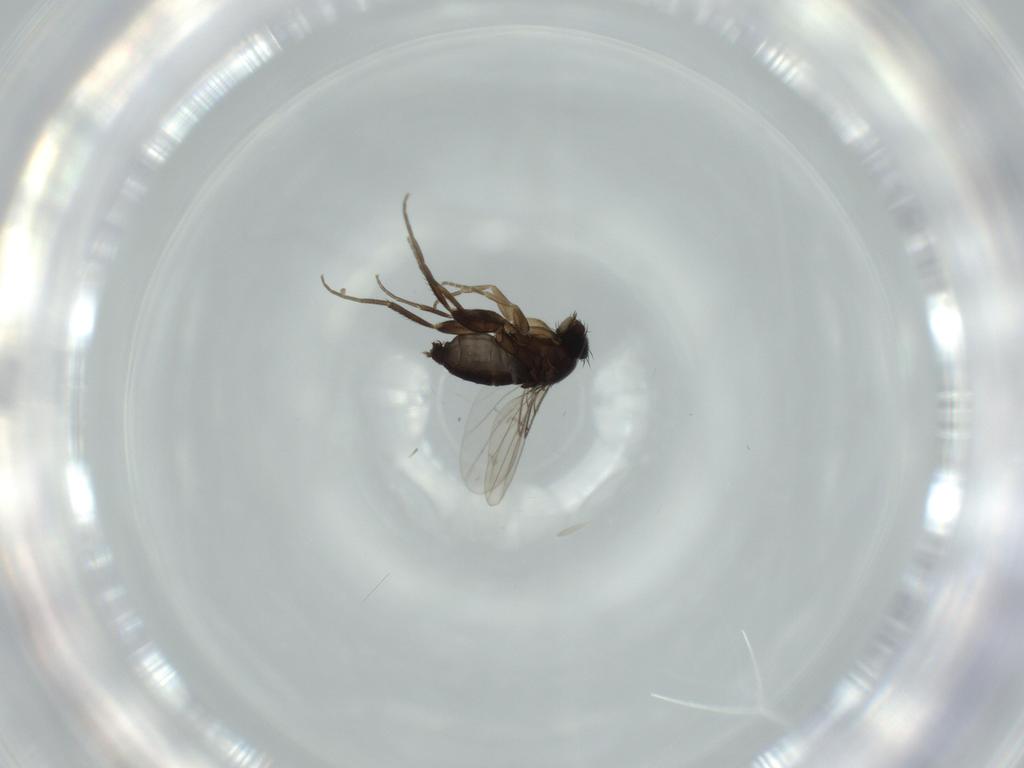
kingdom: Animalia
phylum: Arthropoda
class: Insecta
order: Diptera
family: Phoridae
